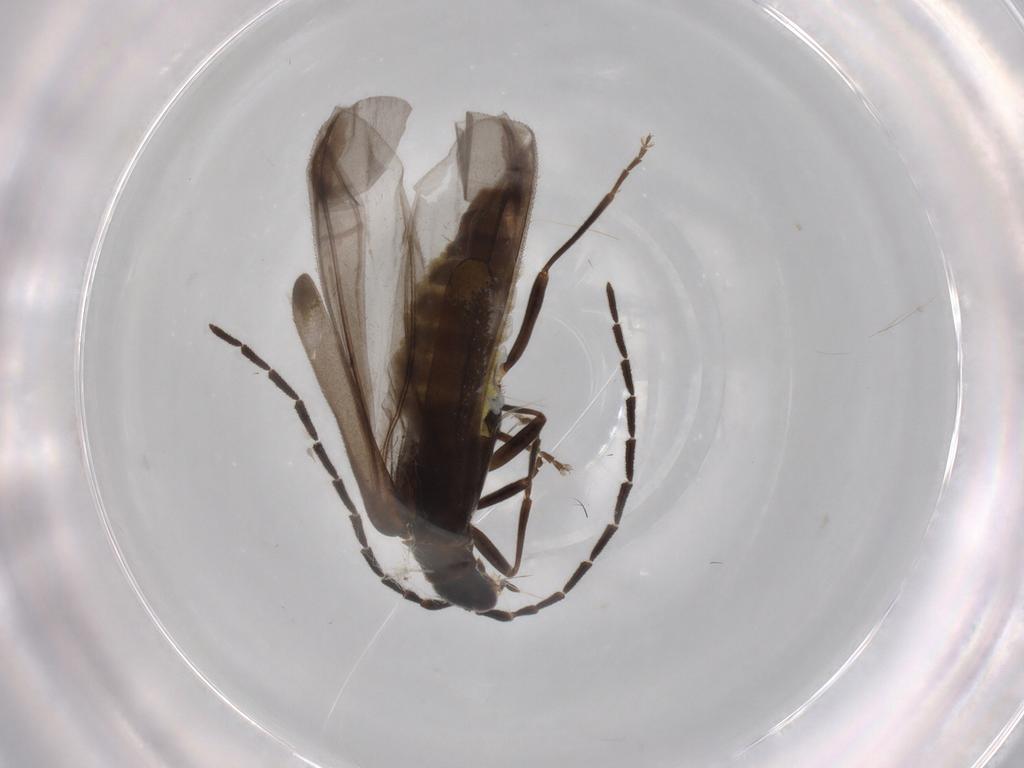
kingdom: Animalia
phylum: Arthropoda
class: Insecta
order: Coleoptera
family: Cantharidae
